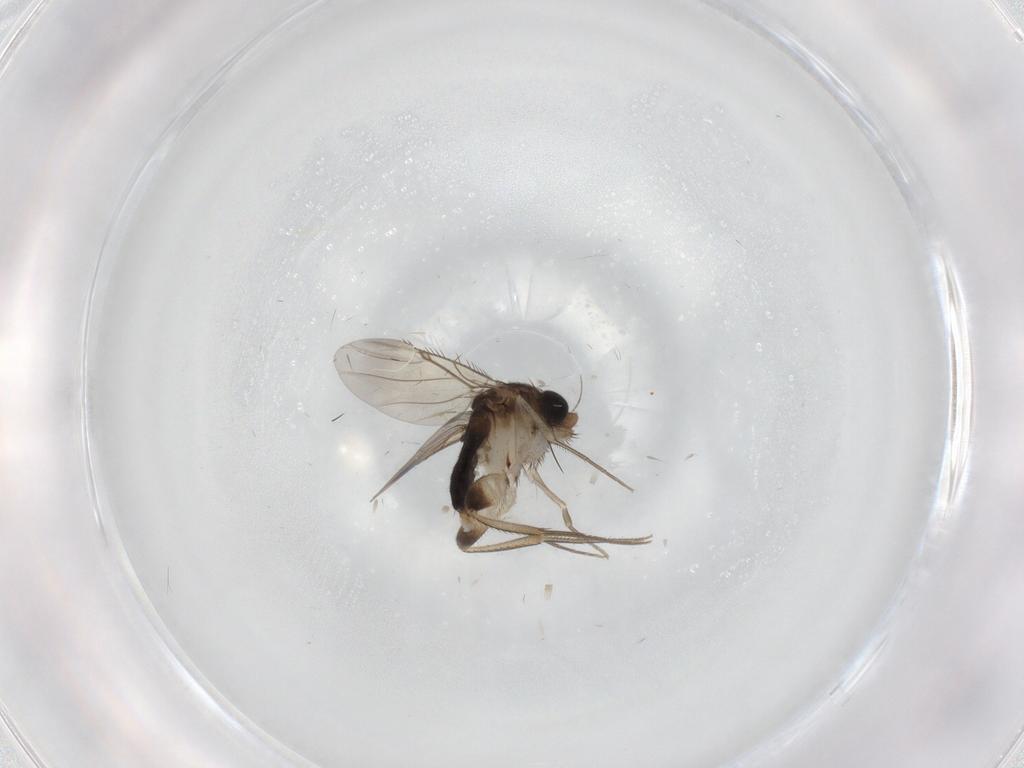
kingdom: Animalia
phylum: Arthropoda
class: Insecta
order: Diptera
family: Phoridae
